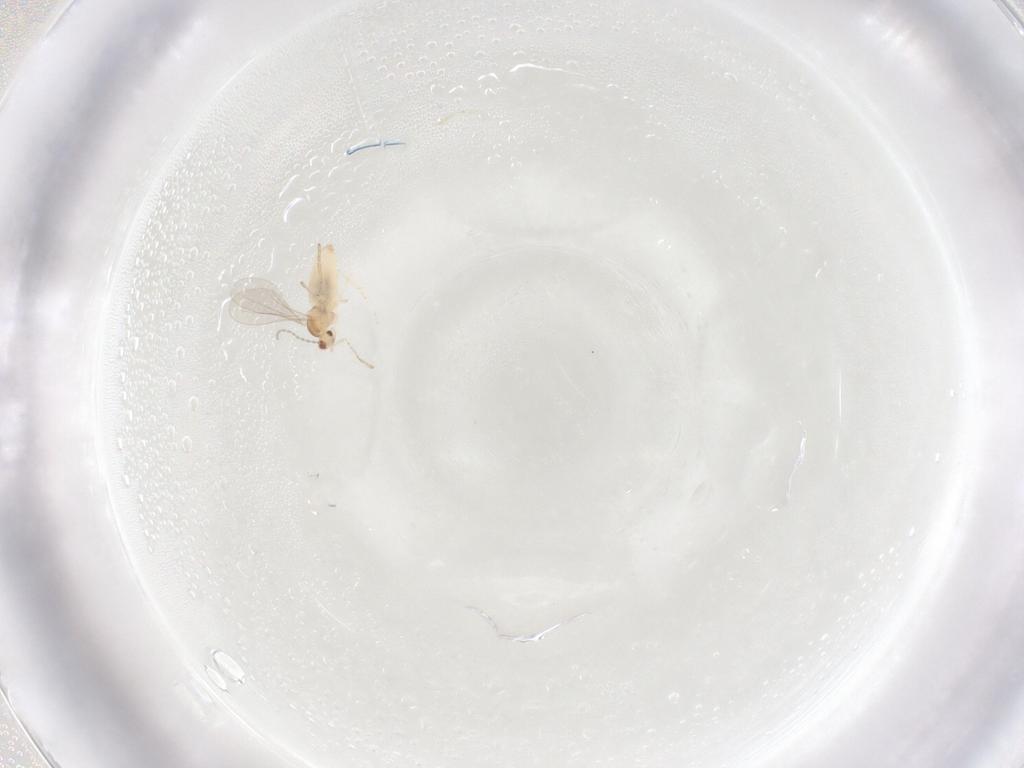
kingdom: Animalia
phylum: Arthropoda
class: Insecta
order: Diptera
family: Cecidomyiidae
